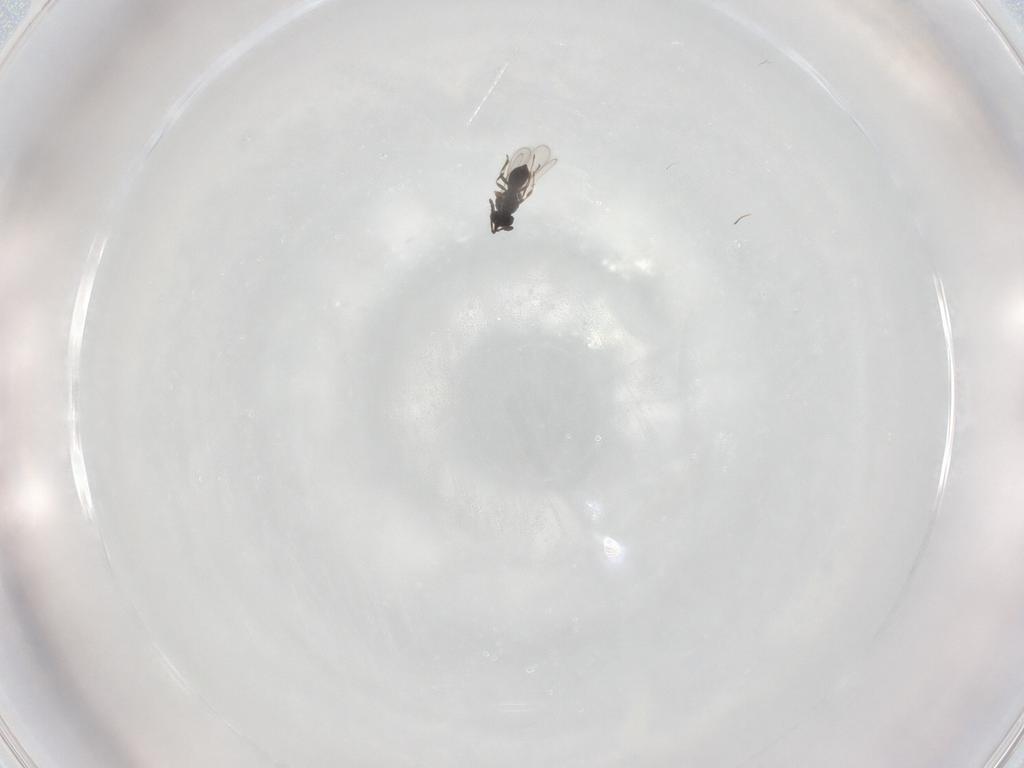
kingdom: Animalia
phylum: Arthropoda
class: Insecta
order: Hymenoptera
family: Scelionidae
